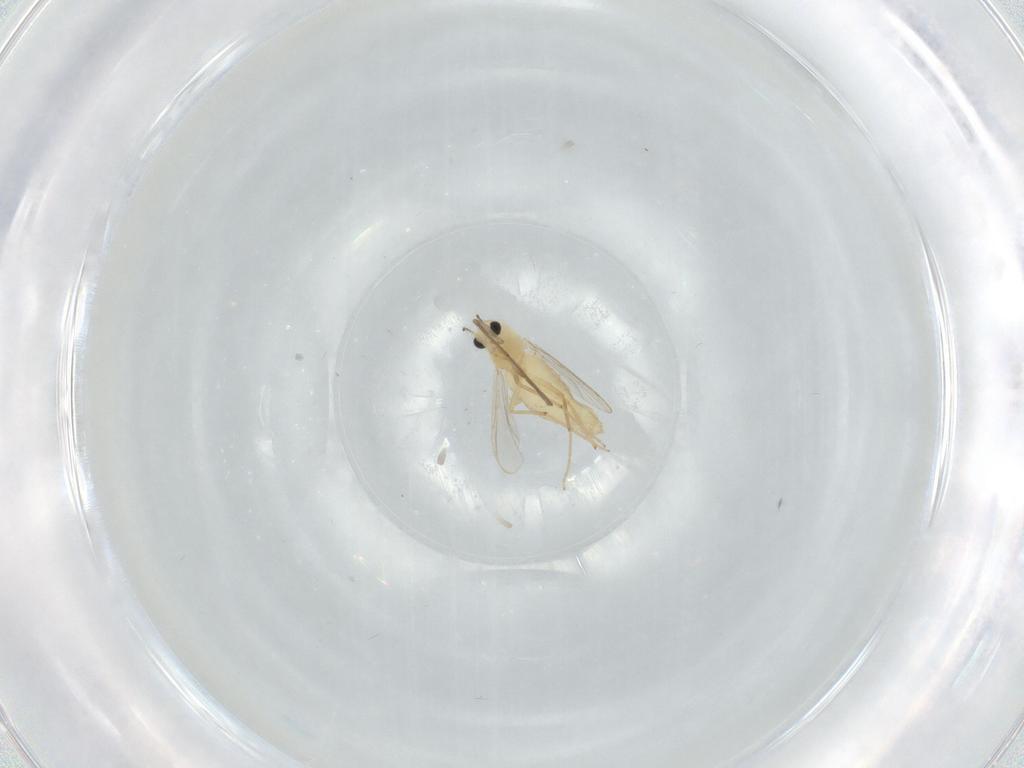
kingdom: Animalia
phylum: Arthropoda
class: Insecta
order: Diptera
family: Chironomidae
